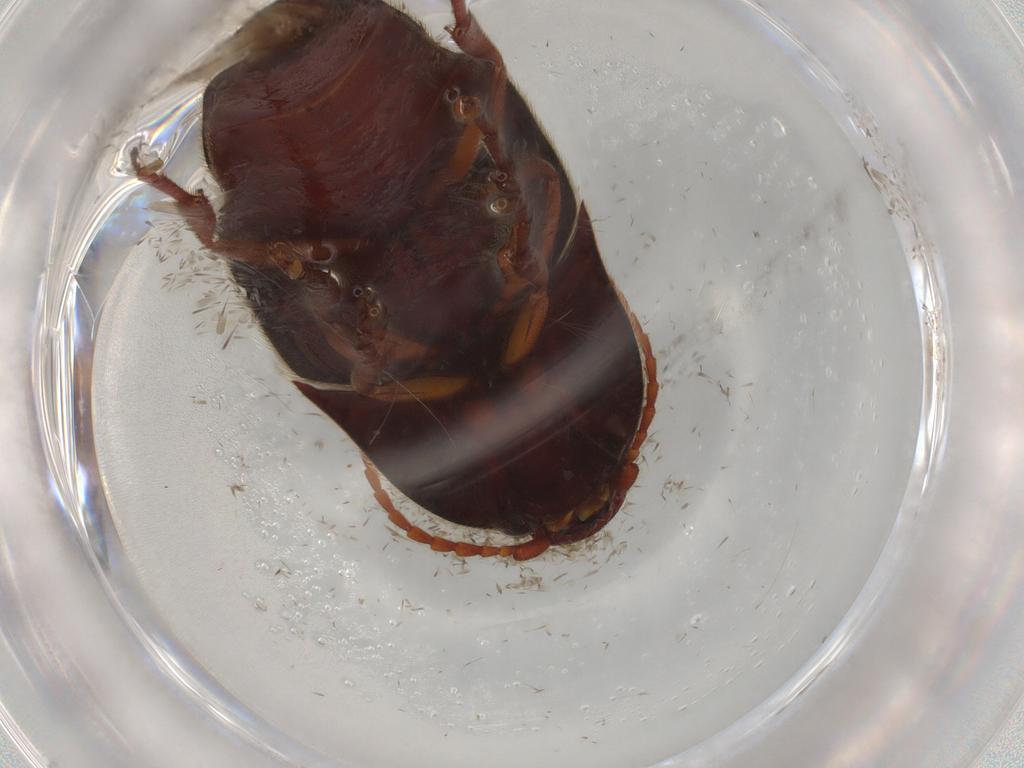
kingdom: Animalia
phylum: Arthropoda
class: Insecta
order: Coleoptera
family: Elateridae
